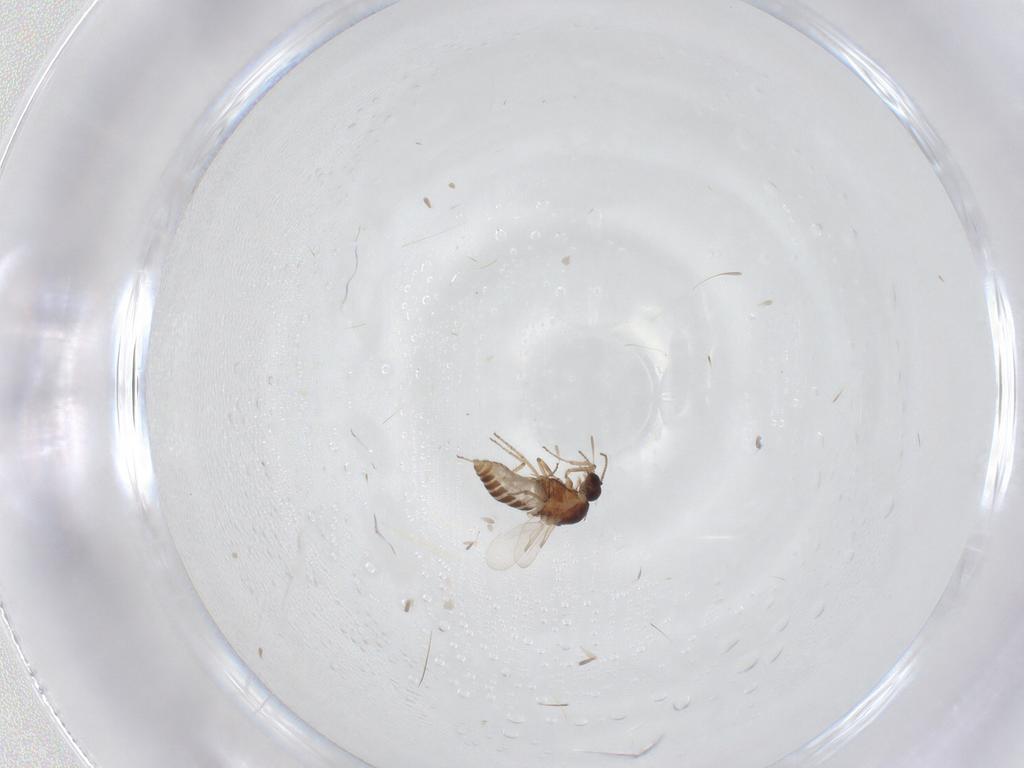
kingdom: Animalia
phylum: Arthropoda
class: Insecta
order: Diptera
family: Ceratopogonidae
